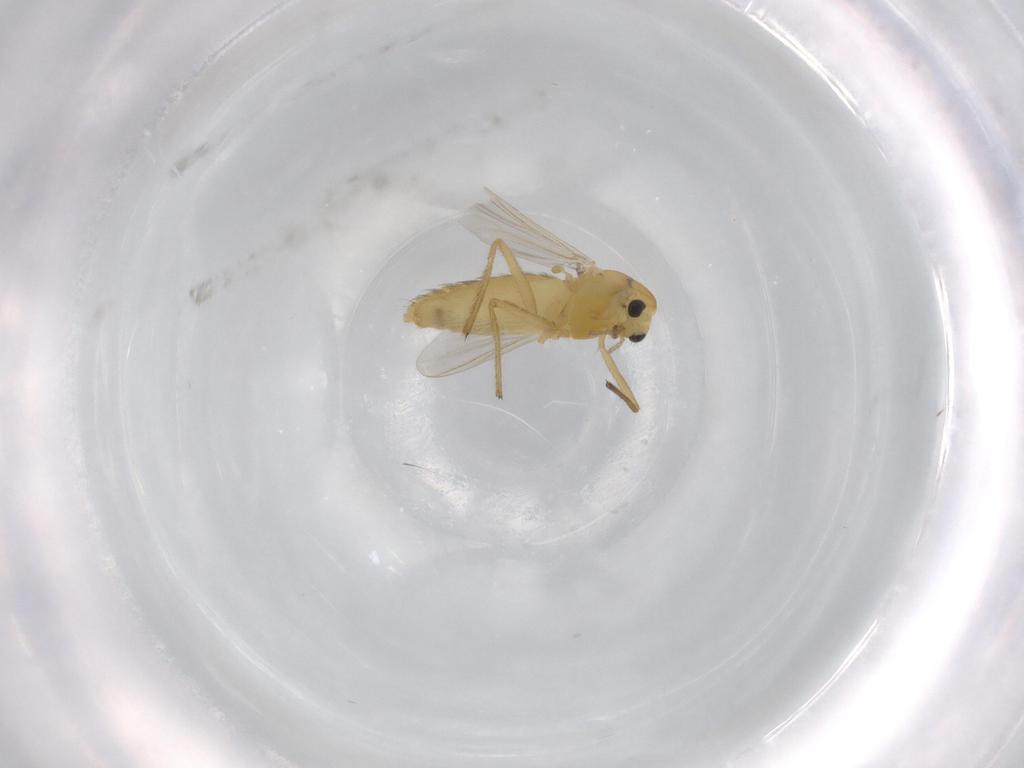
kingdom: Animalia
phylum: Arthropoda
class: Insecta
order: Diptera
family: Chironomidae
